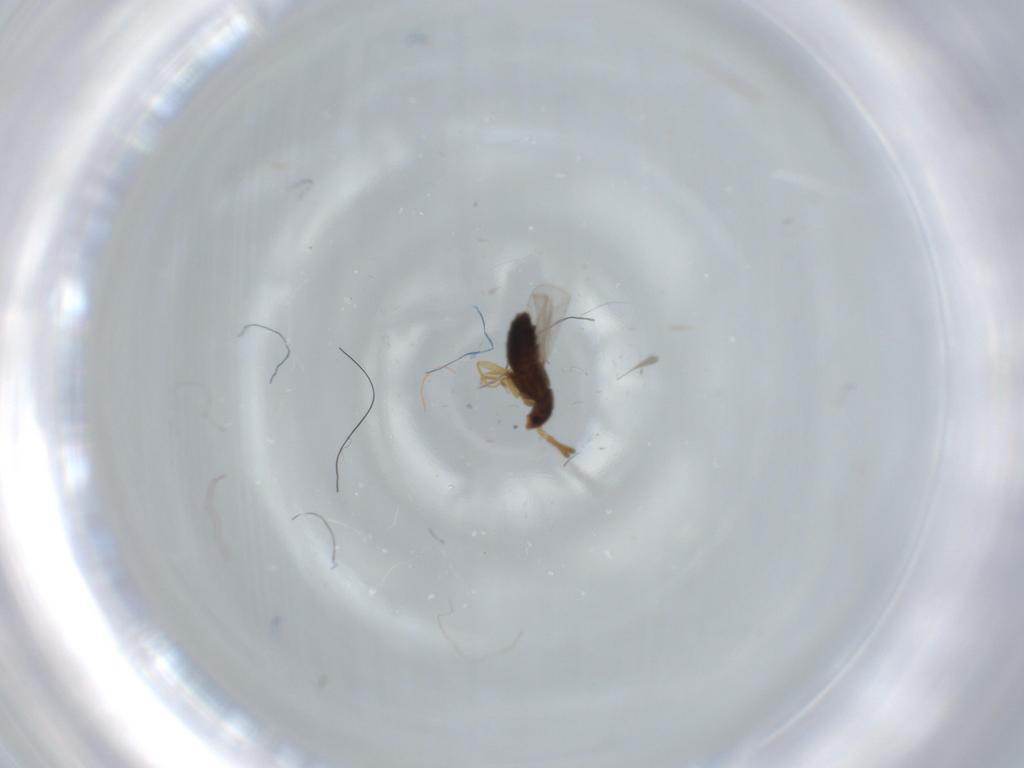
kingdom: Animalia
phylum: Arthropoda
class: Insecta
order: Coleoptera
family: Staphylinidae
